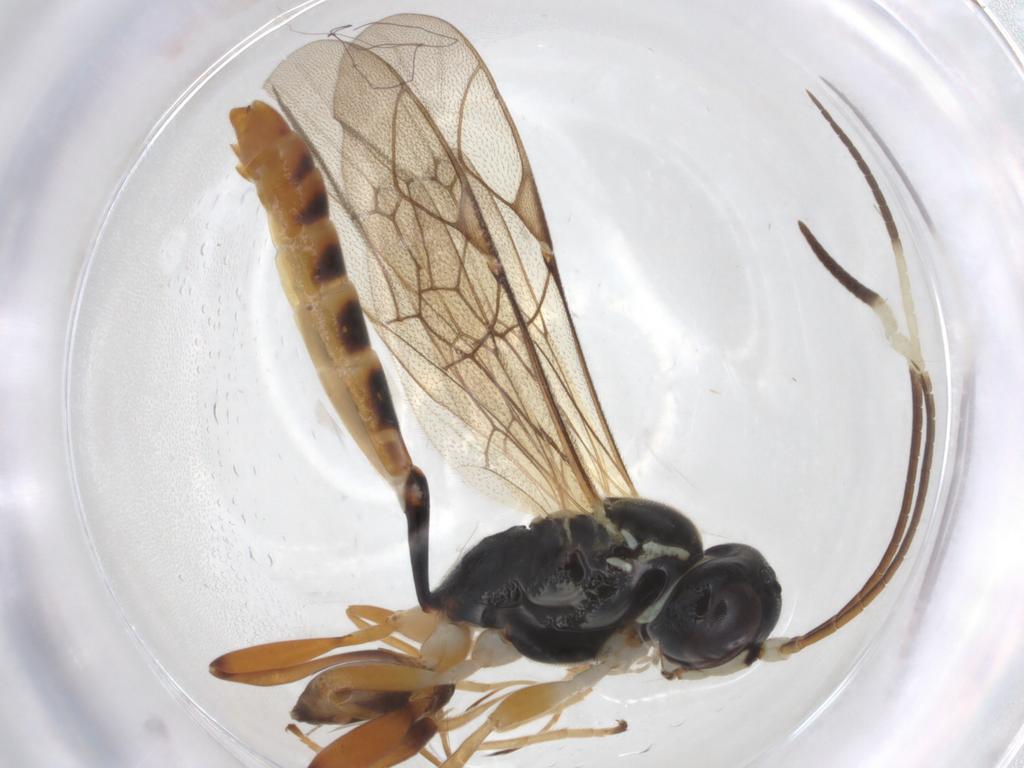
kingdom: Animalia
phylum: Arthropoda
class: Insecta
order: Hymenoptera
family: Ichneumonidae
